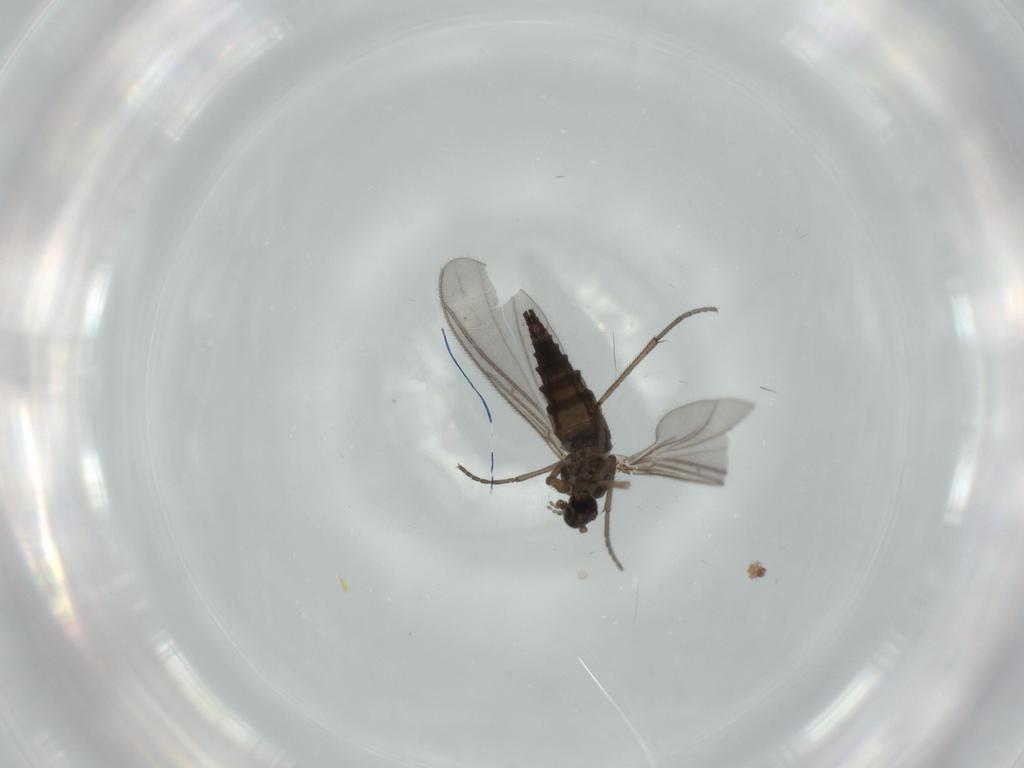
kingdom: Animalia
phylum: Arthropoda
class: Insecta
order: Diptera
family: Sciaridae
